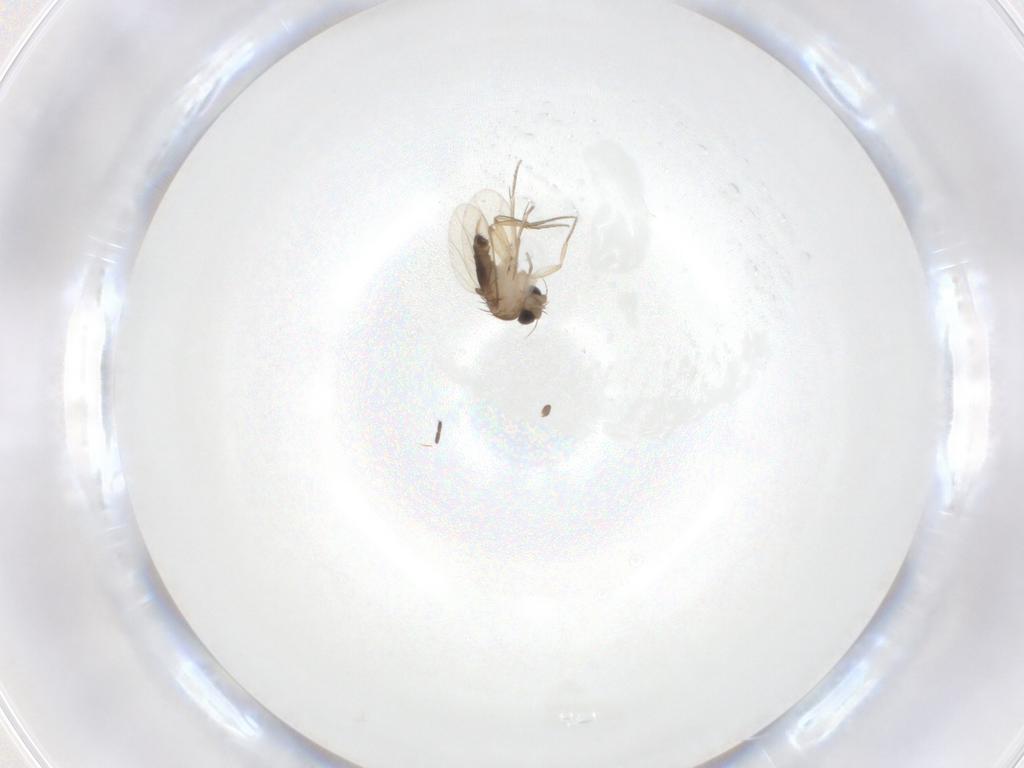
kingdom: Animalia
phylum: Arthropoda
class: Insecta
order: Diptera
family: Phoridae
